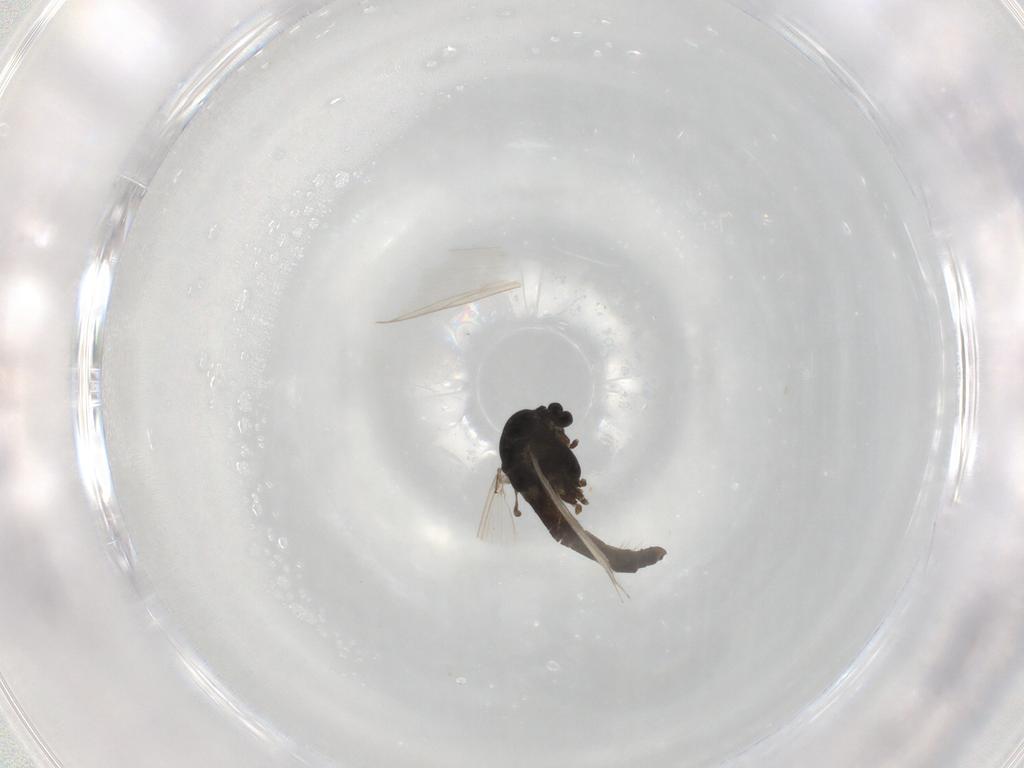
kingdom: Animalia
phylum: Arthropoda
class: Insecta
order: Diptera
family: Chironomidae
